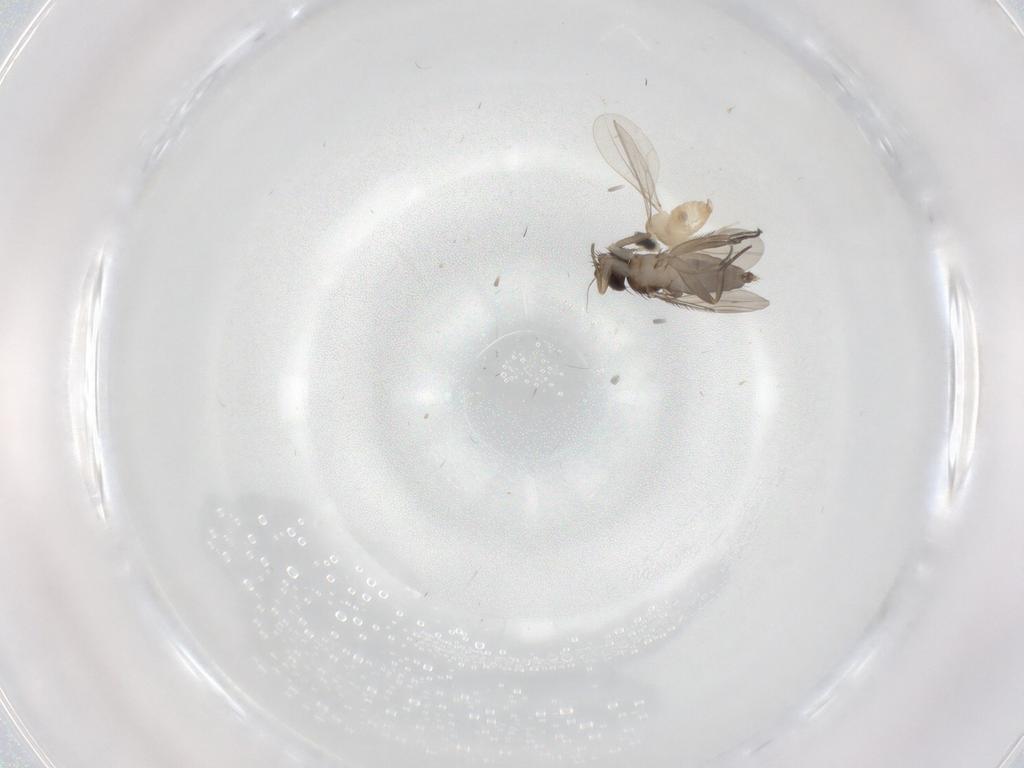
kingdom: Animalia
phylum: Arthropoda
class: Insecta
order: Diptera
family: Phoridae
